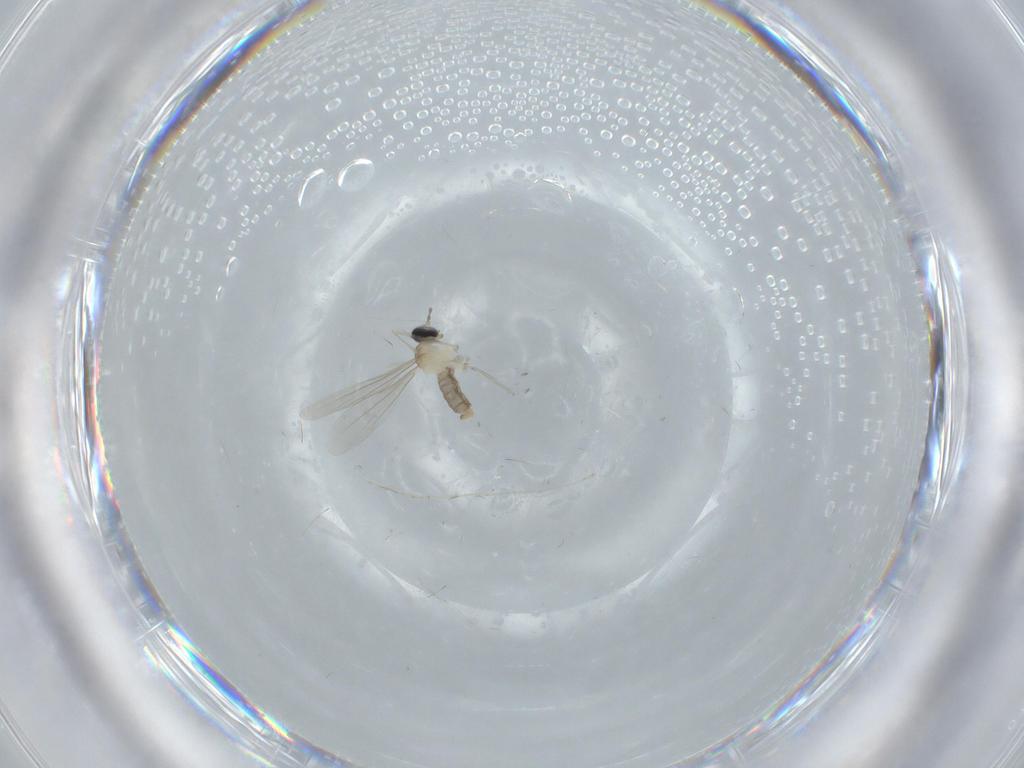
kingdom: Animalia
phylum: Arthropoda
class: Insecta
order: Diptera
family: Cecidomyiidae
